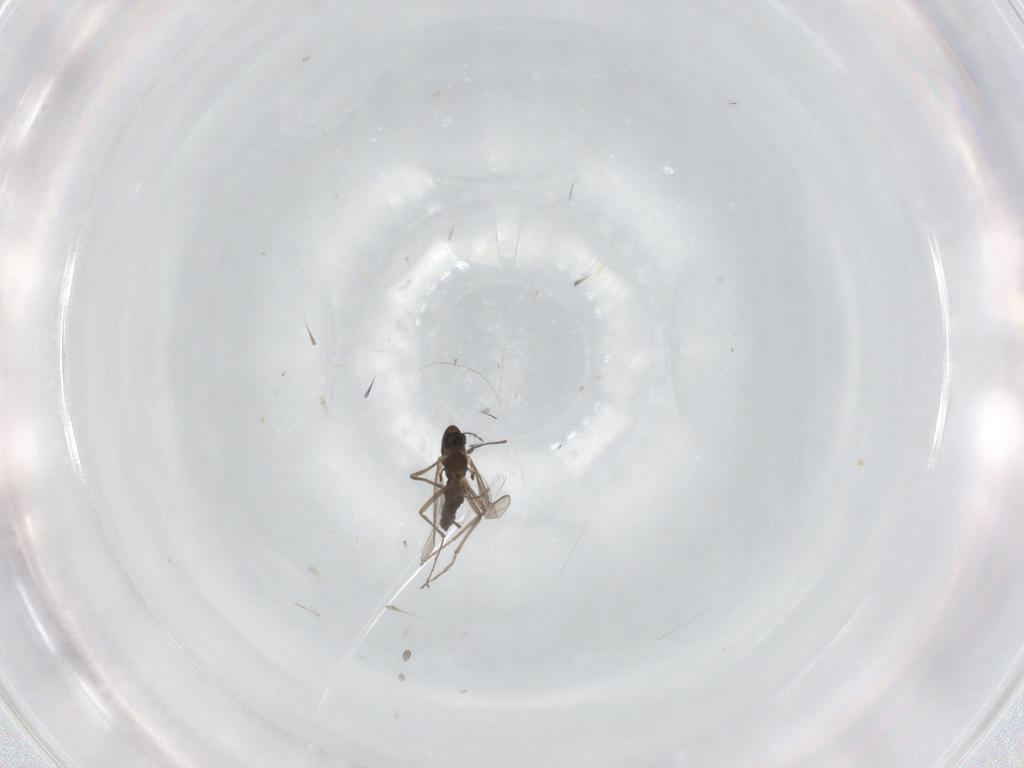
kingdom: Animalia
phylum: Arthropoda
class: Insecta
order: Diptera
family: Chironomidae
